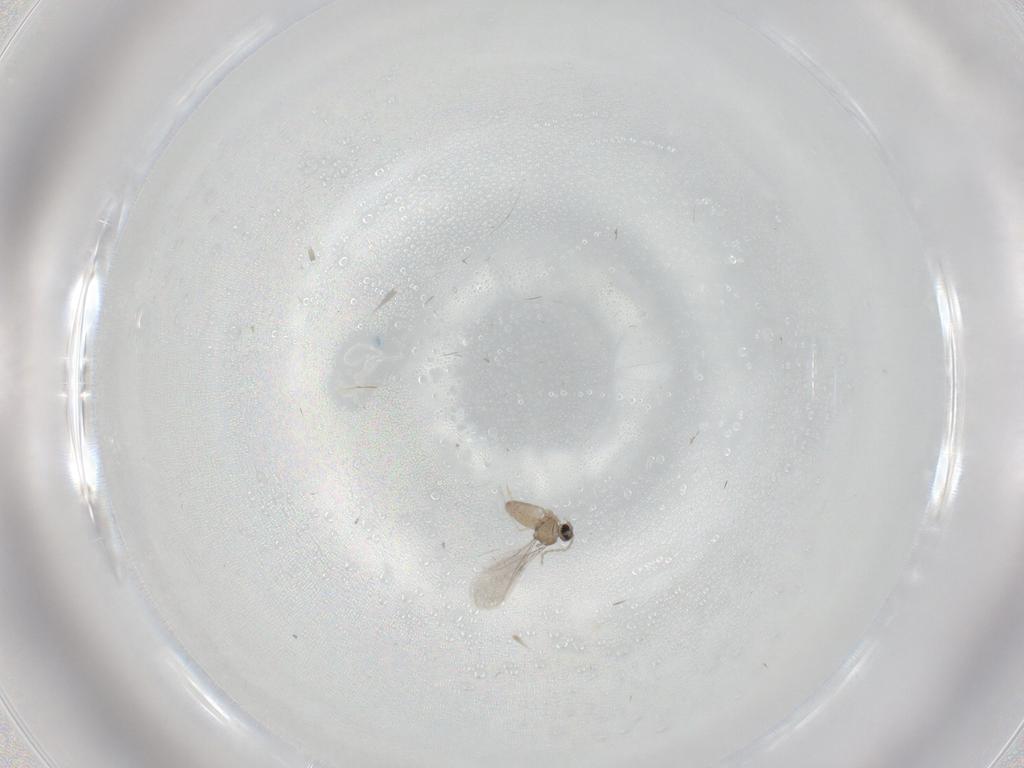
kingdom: Animalia
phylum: Arthropoda
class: Insecta
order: Diptera
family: Cecidomyiidae
